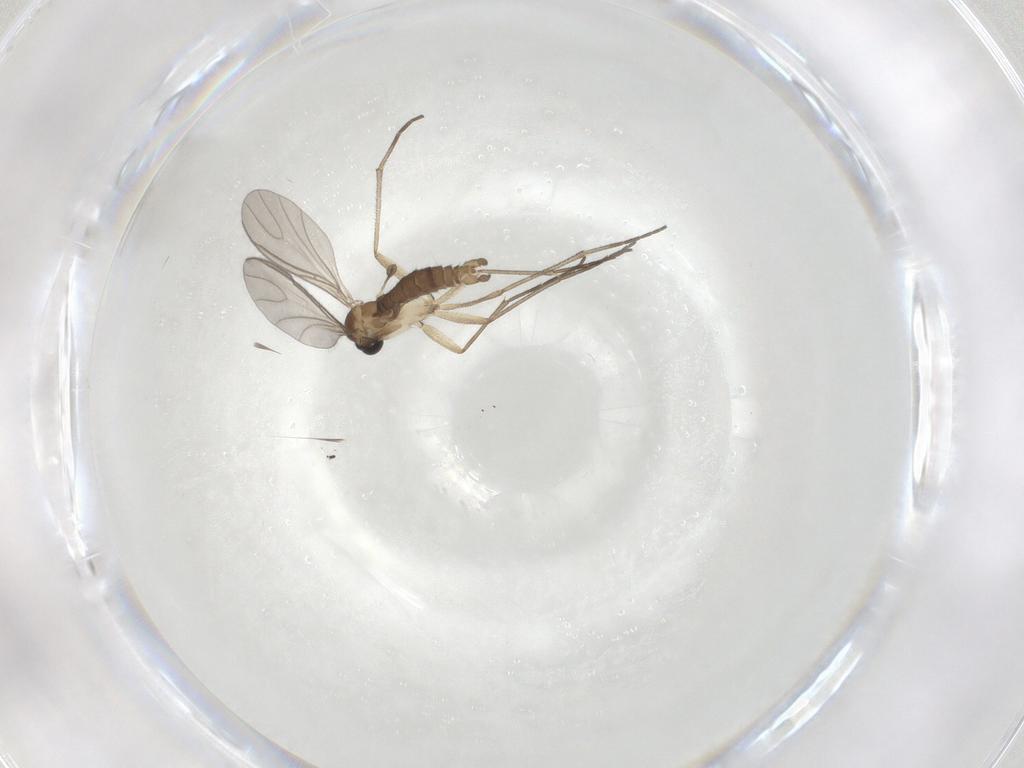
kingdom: Animalia
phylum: Arthropoda
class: Insecta
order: Diptera
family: Sciaridae
